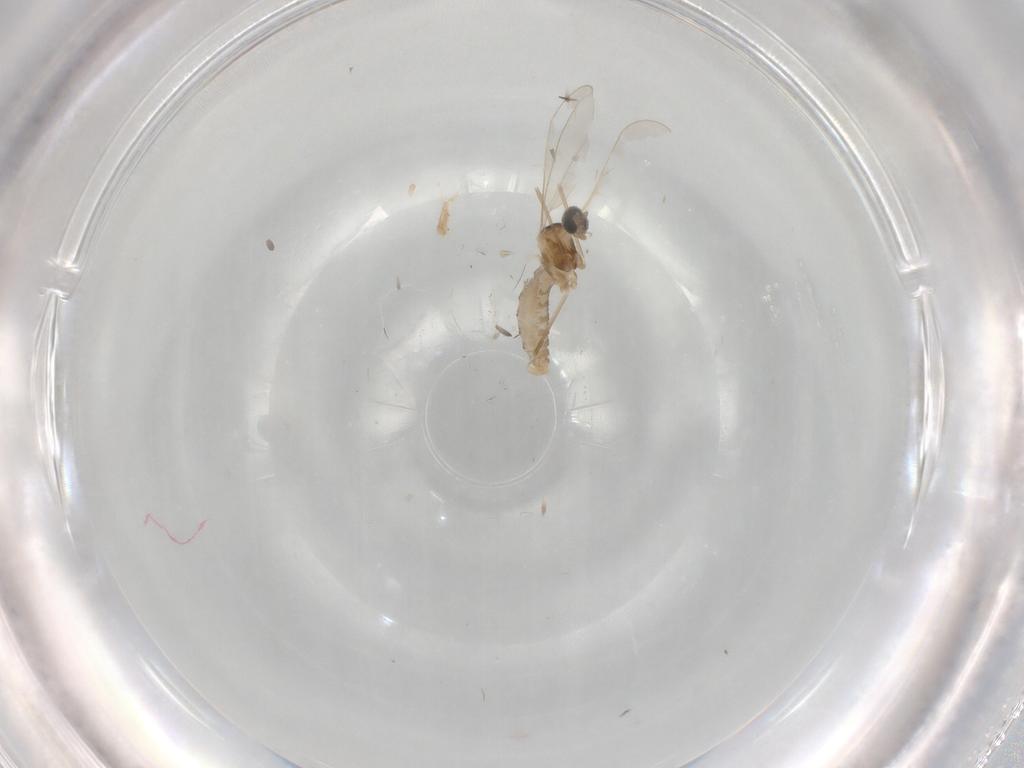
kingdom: Animalia
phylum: Arthropoda
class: Insecta
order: Diptera
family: Cecidomyiidae
